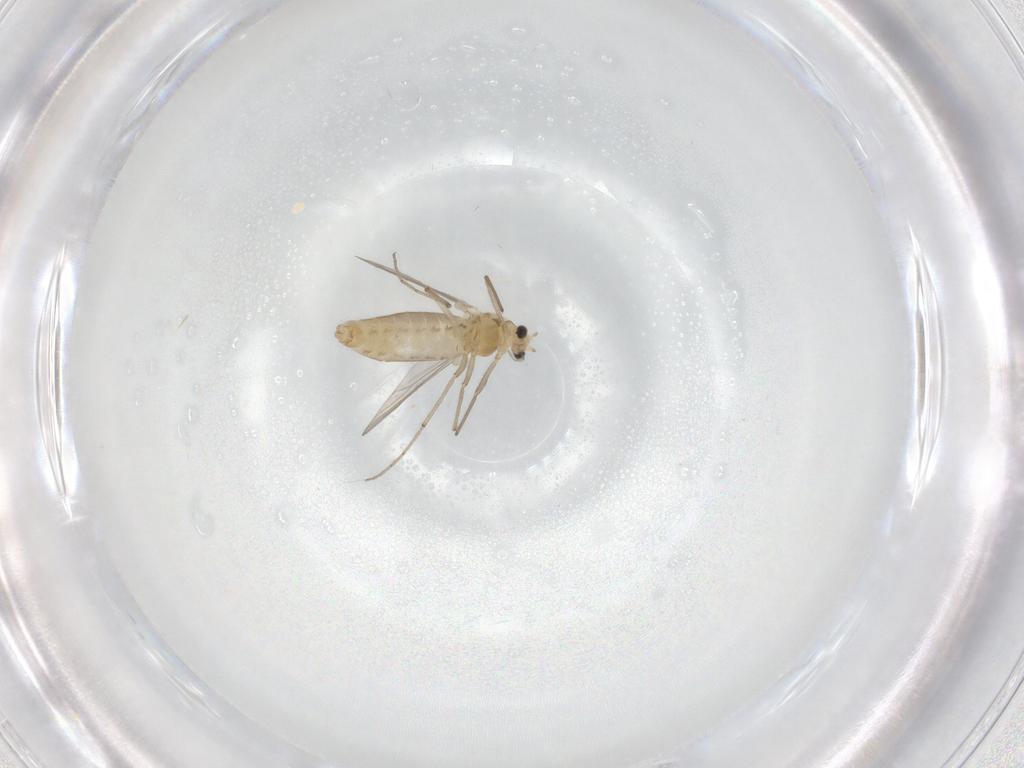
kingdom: Animalia
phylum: Arthropoda
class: Insecta
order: Diptera
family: Chironomidae
